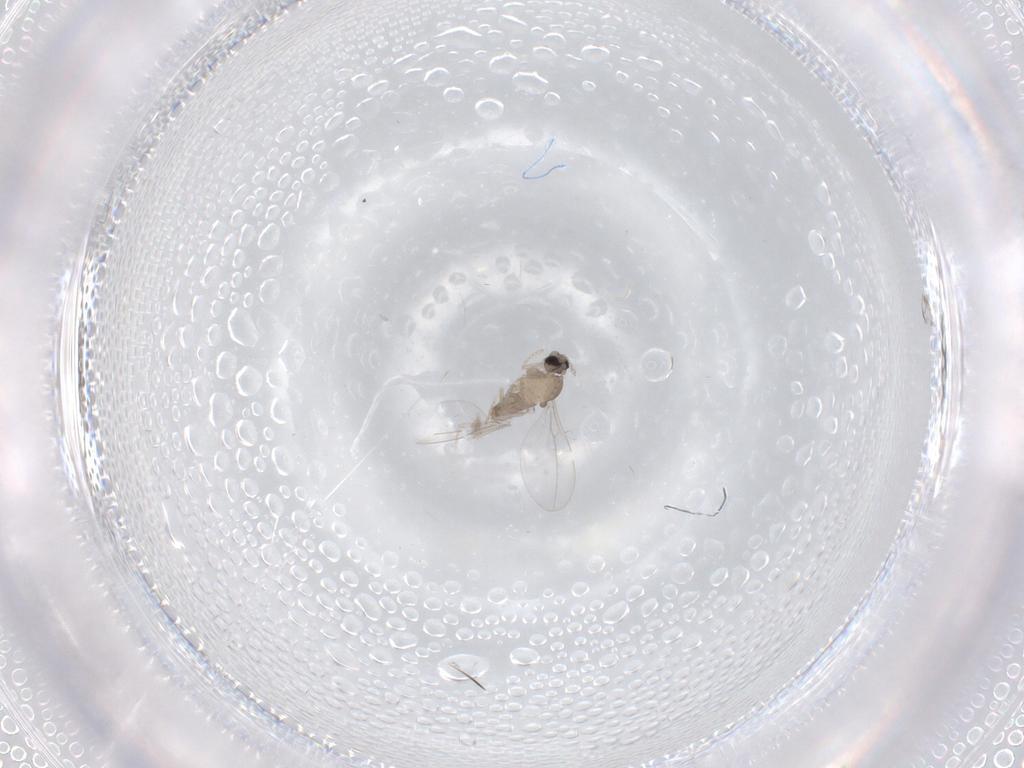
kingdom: Animalia
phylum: Arthropoda
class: Insecta
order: Diptera
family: Cecidomyiidae
